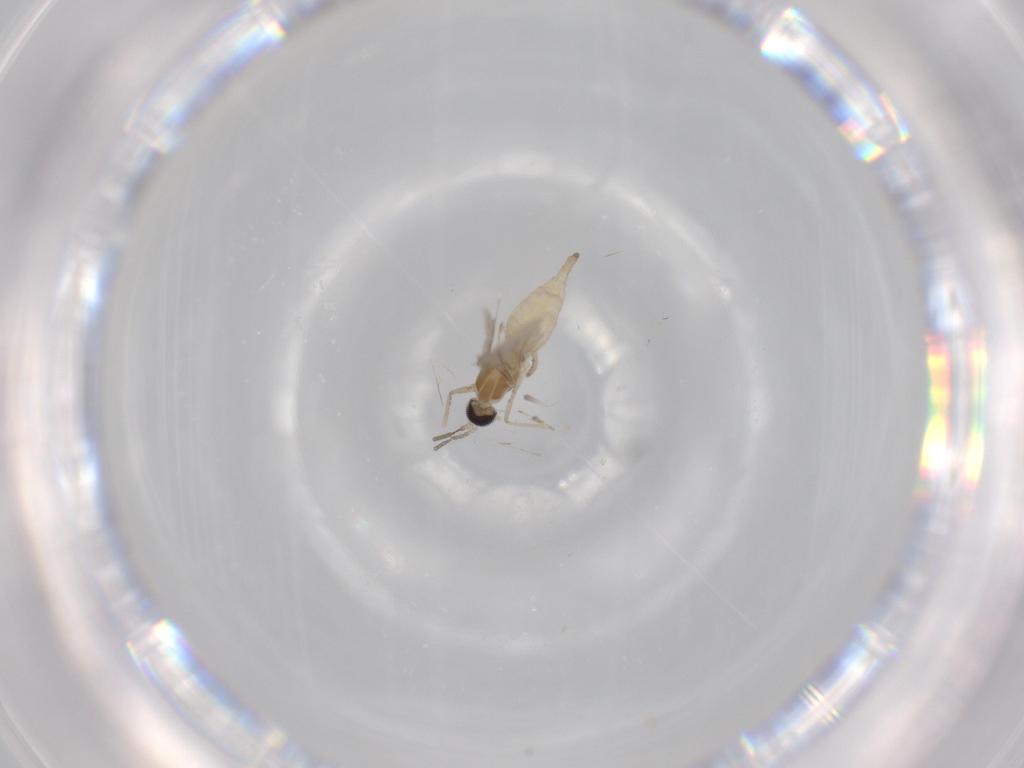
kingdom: Animalia
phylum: Arthropoda
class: Insecta
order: Diptera
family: Cecidomyiidae
